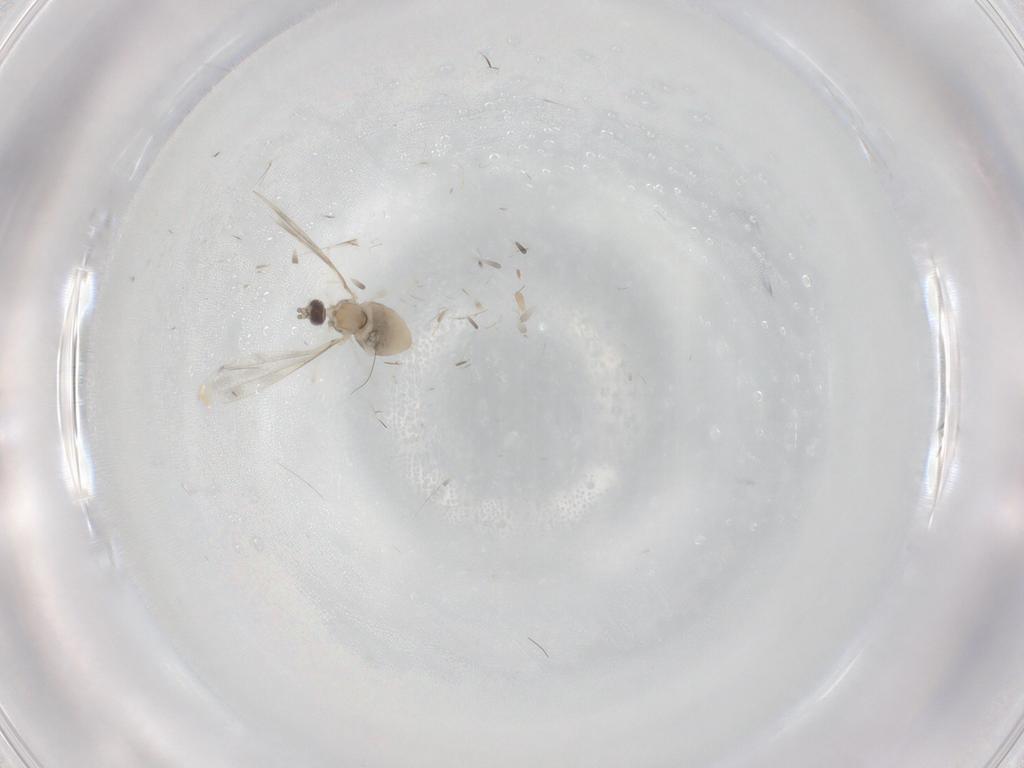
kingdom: Animalia
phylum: Arthropoda
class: Insecta
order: Diptera
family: Cecidomyiidae
